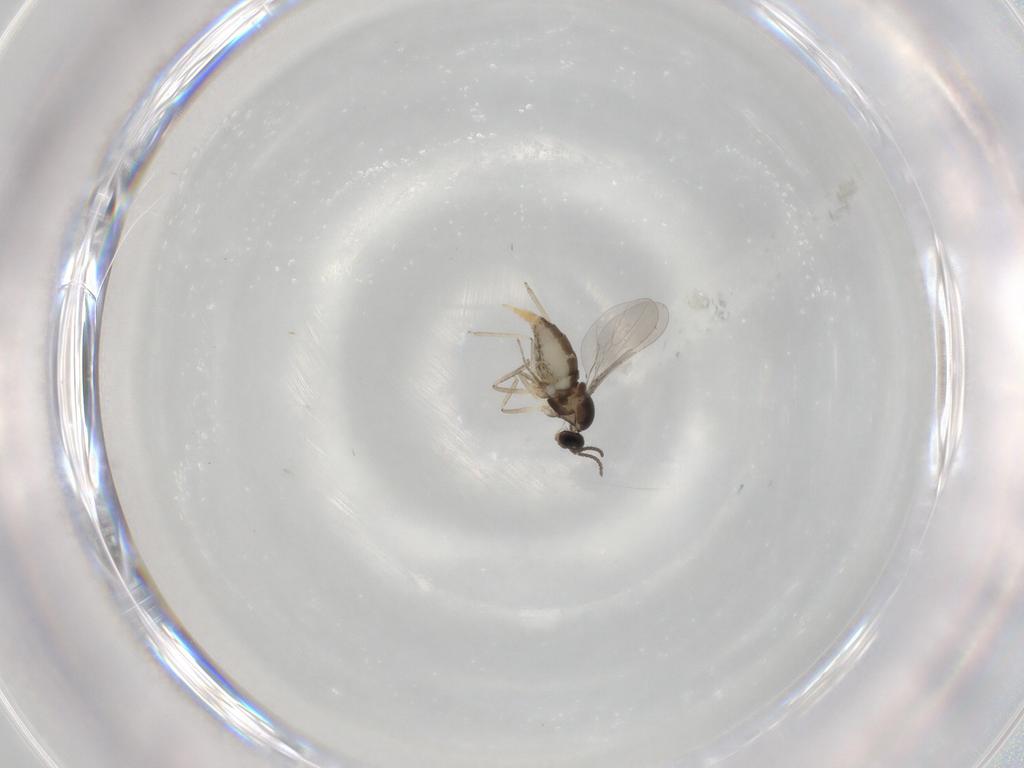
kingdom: Animalia
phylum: Arthropoda
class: Insecta
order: Diptera
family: Cecidomyiidae
